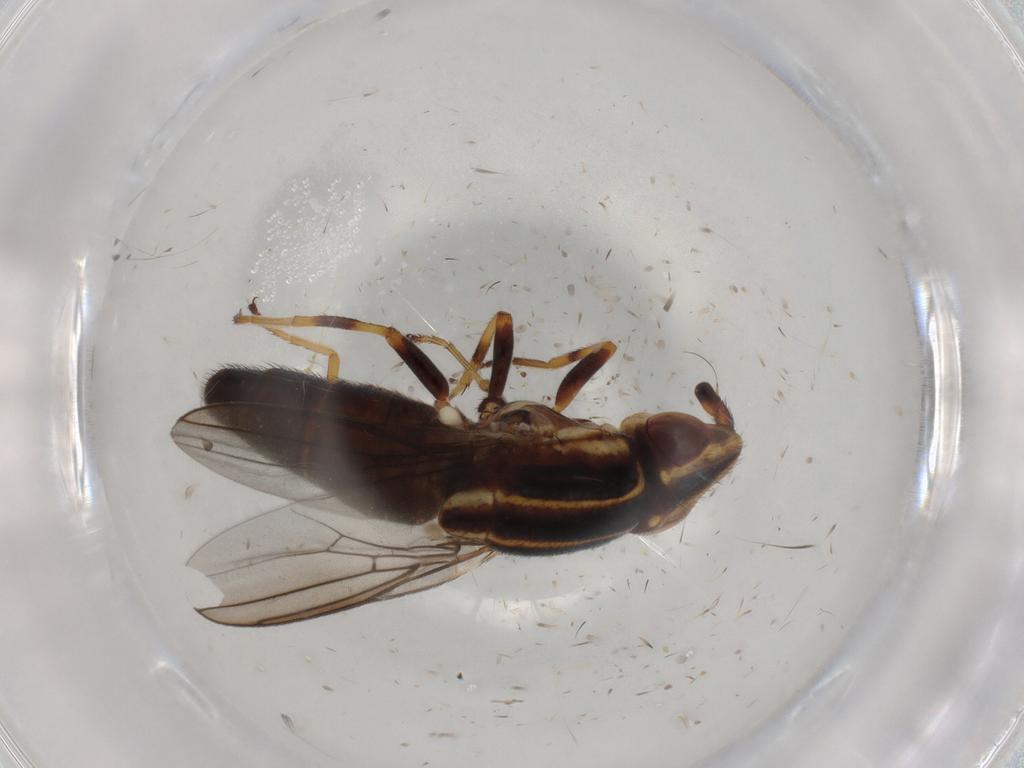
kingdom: Animalia
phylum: Arthropoda
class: Insecta
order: Diptera
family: Chloropidae
